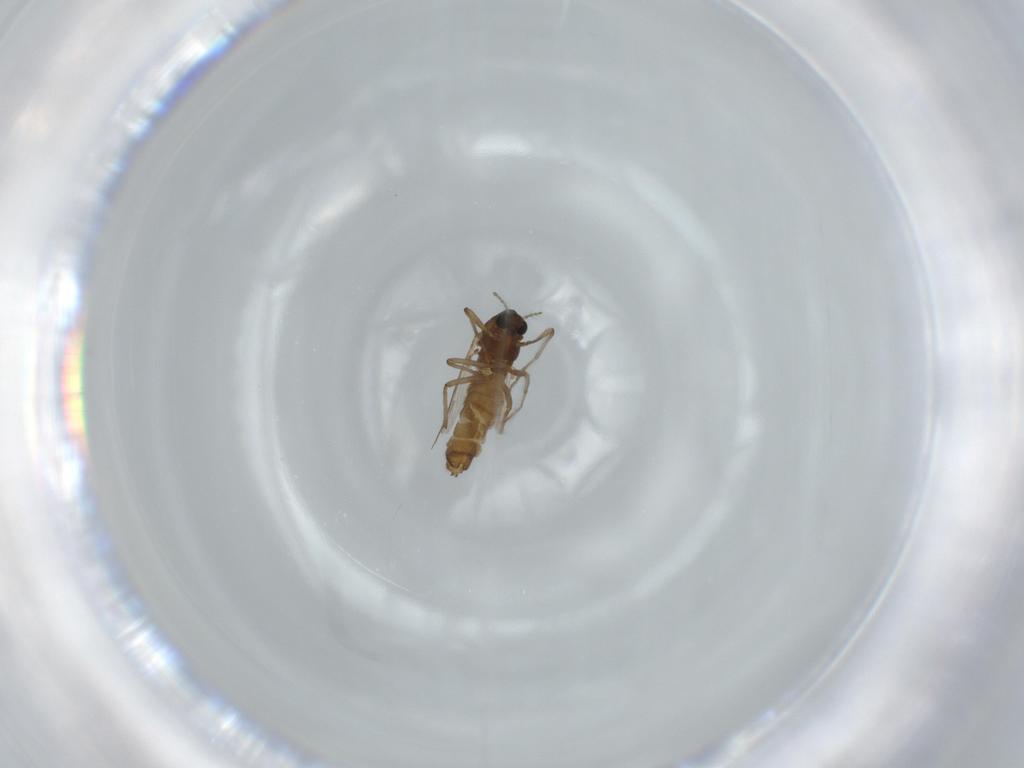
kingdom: Animalia
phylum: Arthropoda
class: Insecta
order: Diptera
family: Chironomidae
